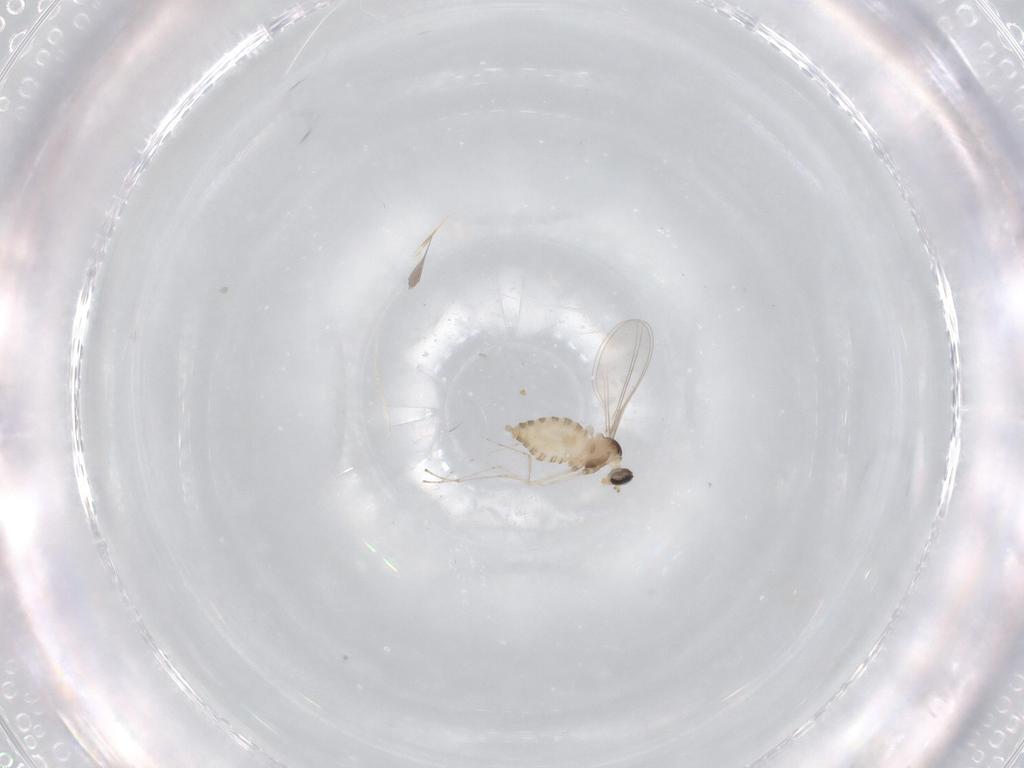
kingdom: Animalia
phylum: Arthropoda
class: Insecta
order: Diptera
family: Cecidomyiidae
